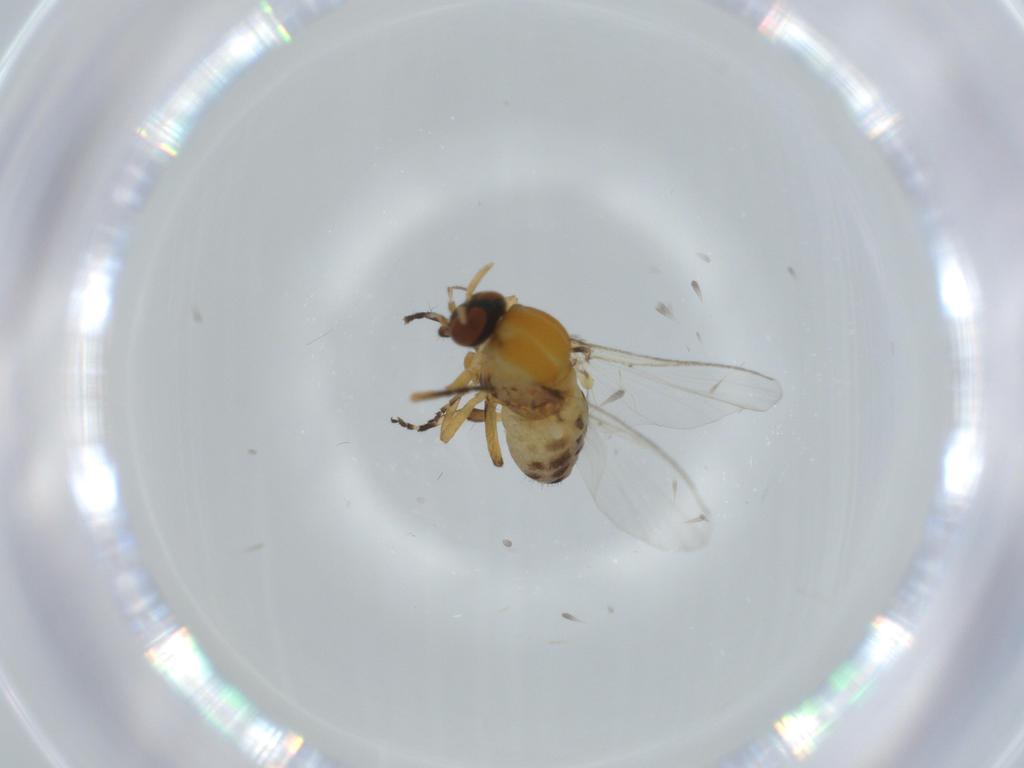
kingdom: Animalia
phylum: Arthropoda
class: Insecta
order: Diptera
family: Simuliidae
